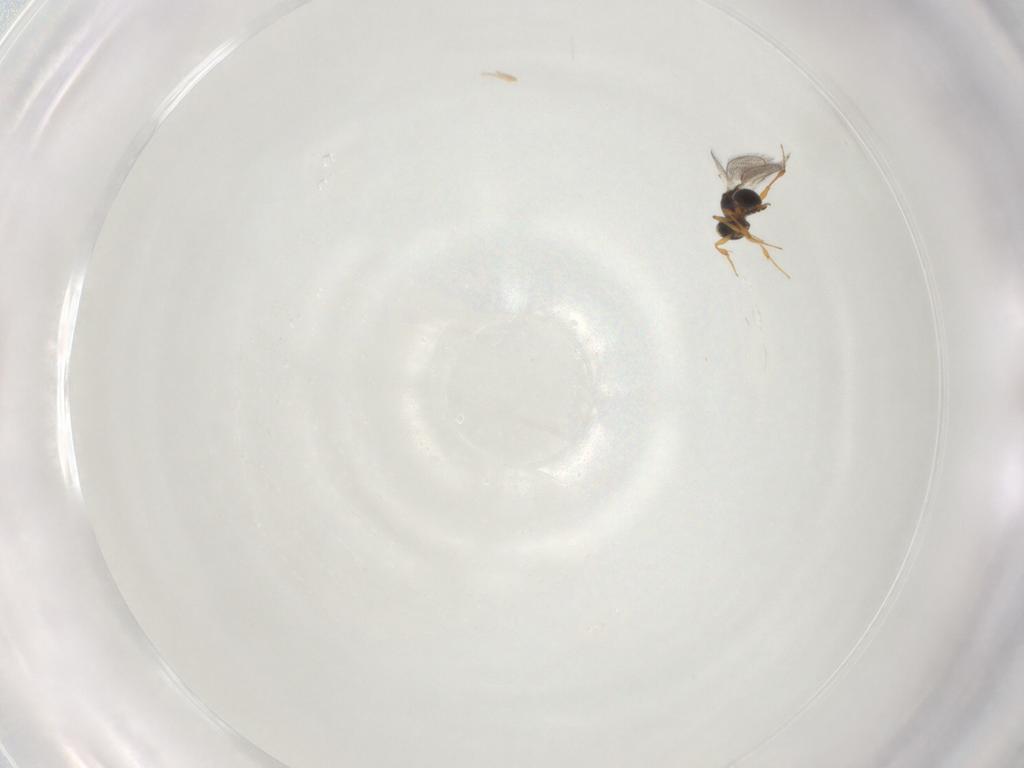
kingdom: Animalia
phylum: Arthropoda
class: Insecta
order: Hymenoptera
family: Platygastridae
